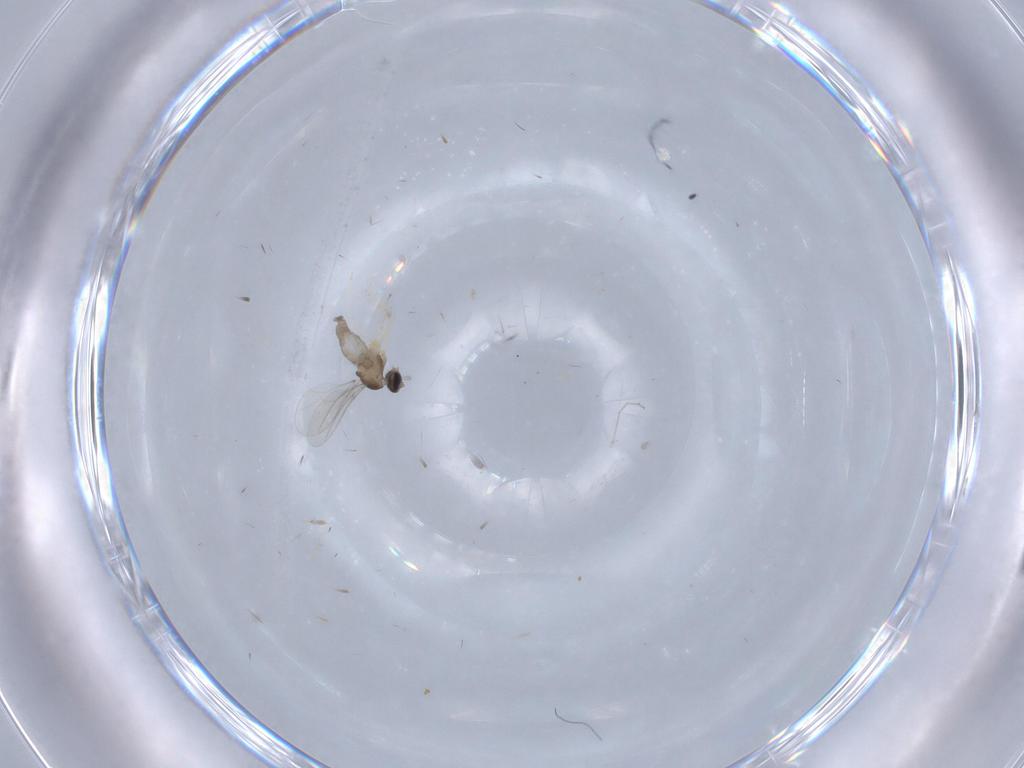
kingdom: Animalia
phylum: Arthropoda
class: Insecta
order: Diptera
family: Cecidomyiidae
